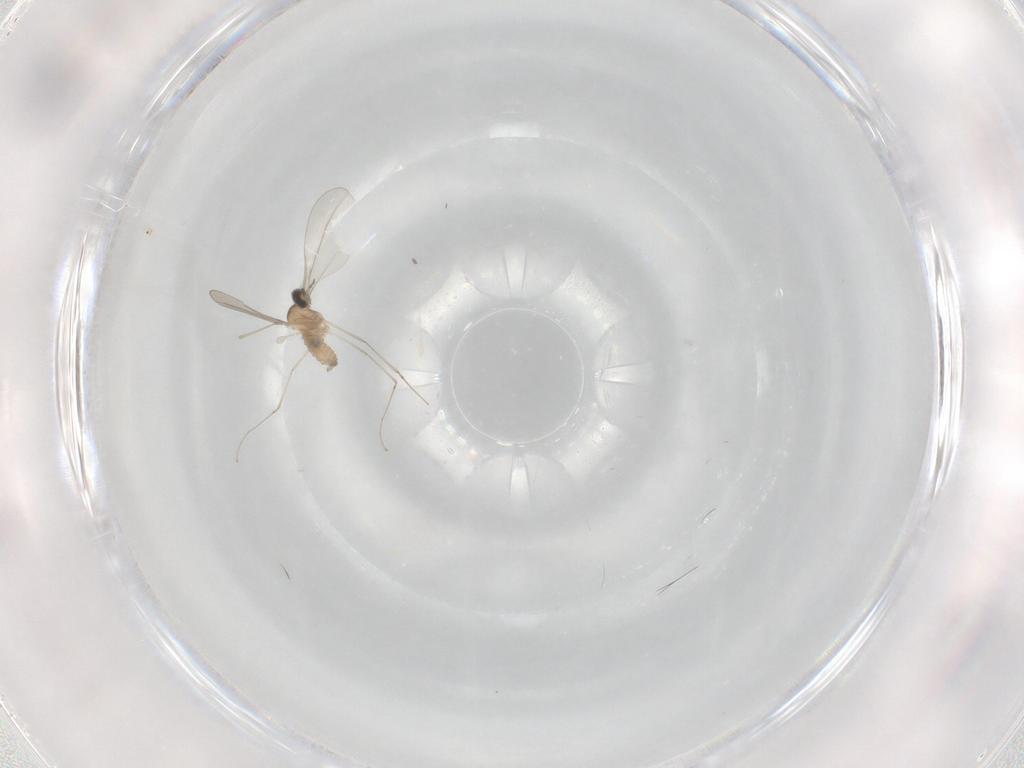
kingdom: Animalia
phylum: Arthropoda
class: Insecta
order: Diptera
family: Cecidomyiidae
